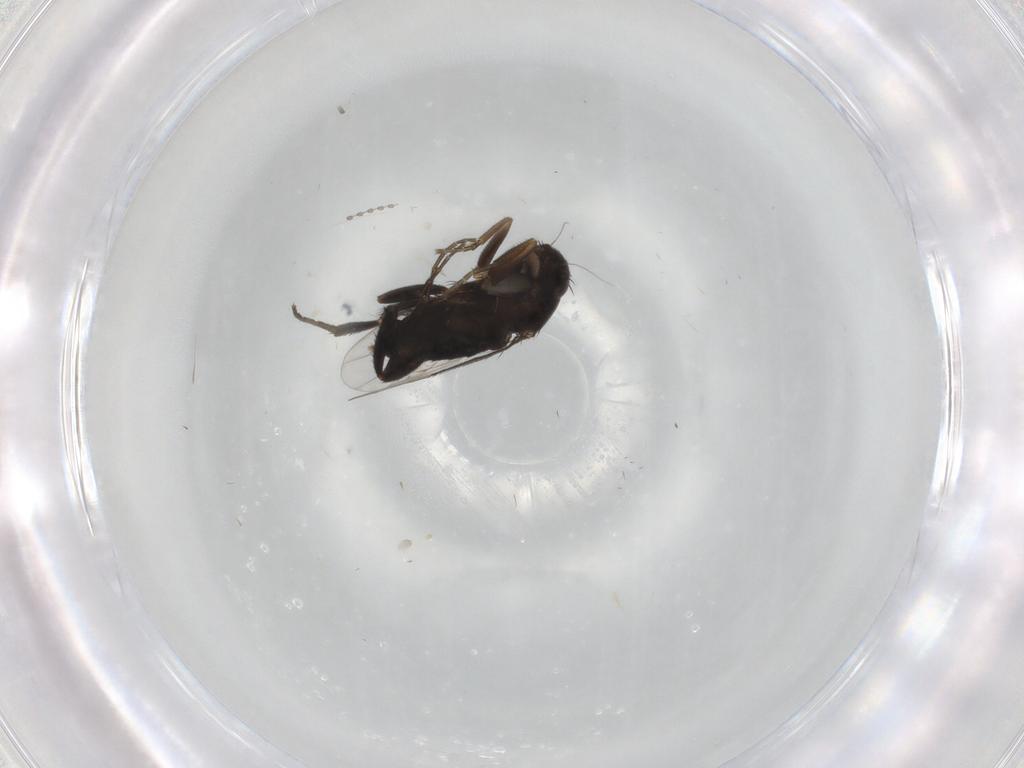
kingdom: Animalia
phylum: Arthropoda
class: Insecta
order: Diptera
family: Phoridae
